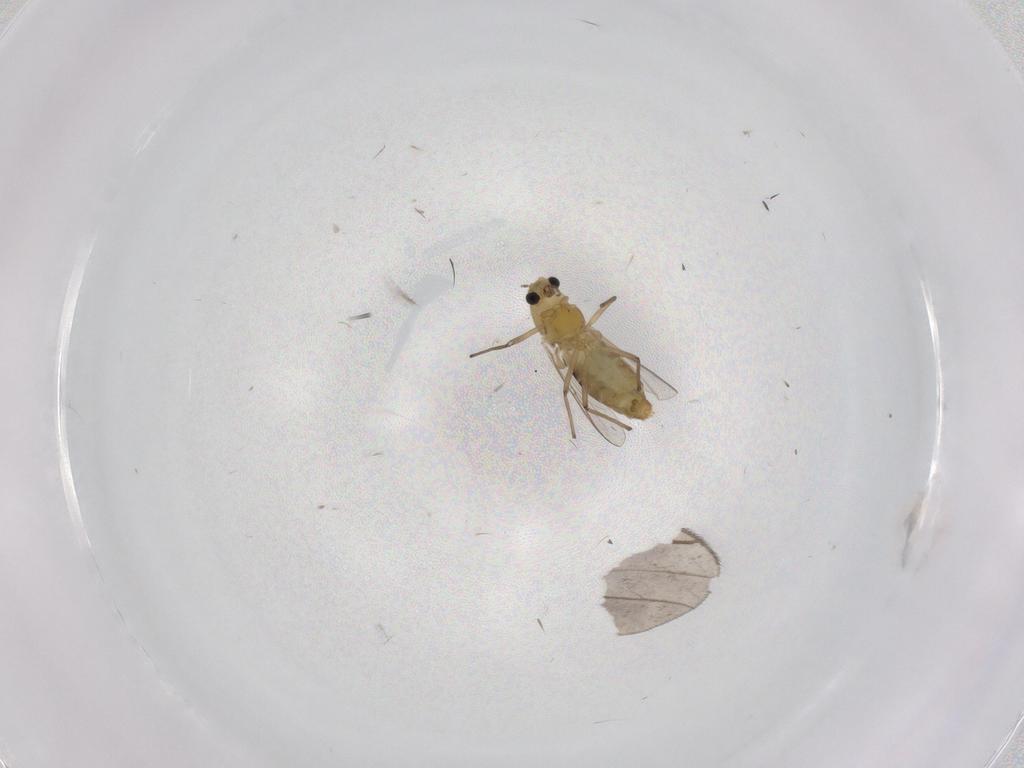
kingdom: Animalia
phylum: Arthropoda
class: Insecta
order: Diptera
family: Chironomidae
